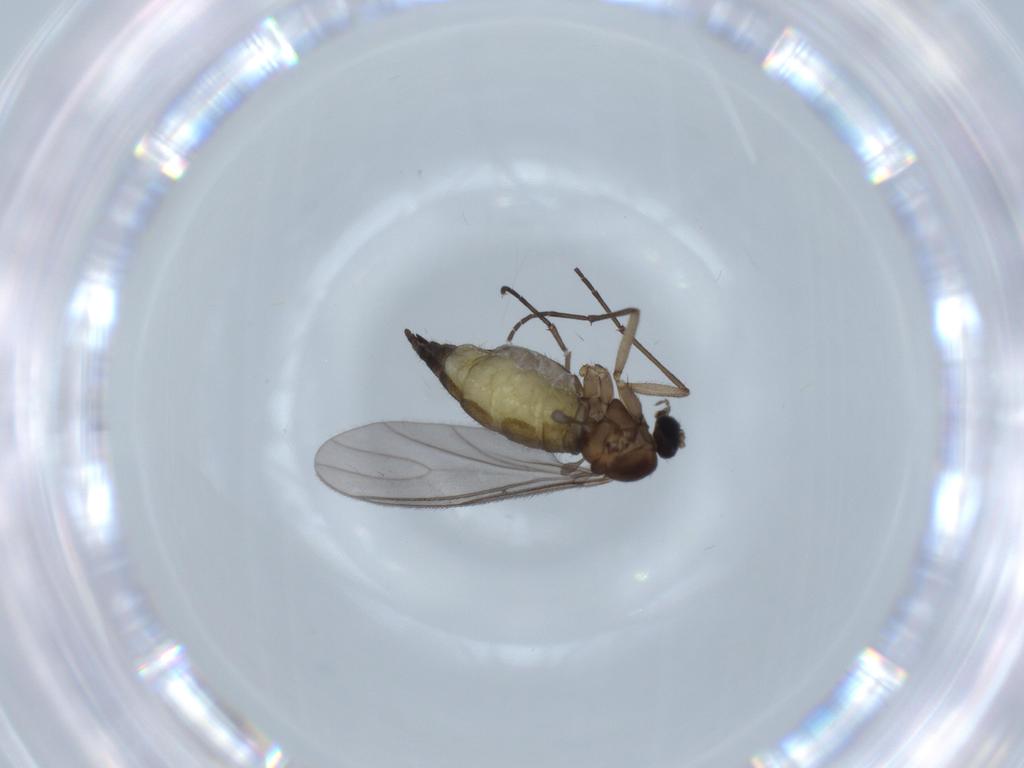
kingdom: Animalia
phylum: Arthropoda
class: Insecta
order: Diptera
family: Sciaridae
